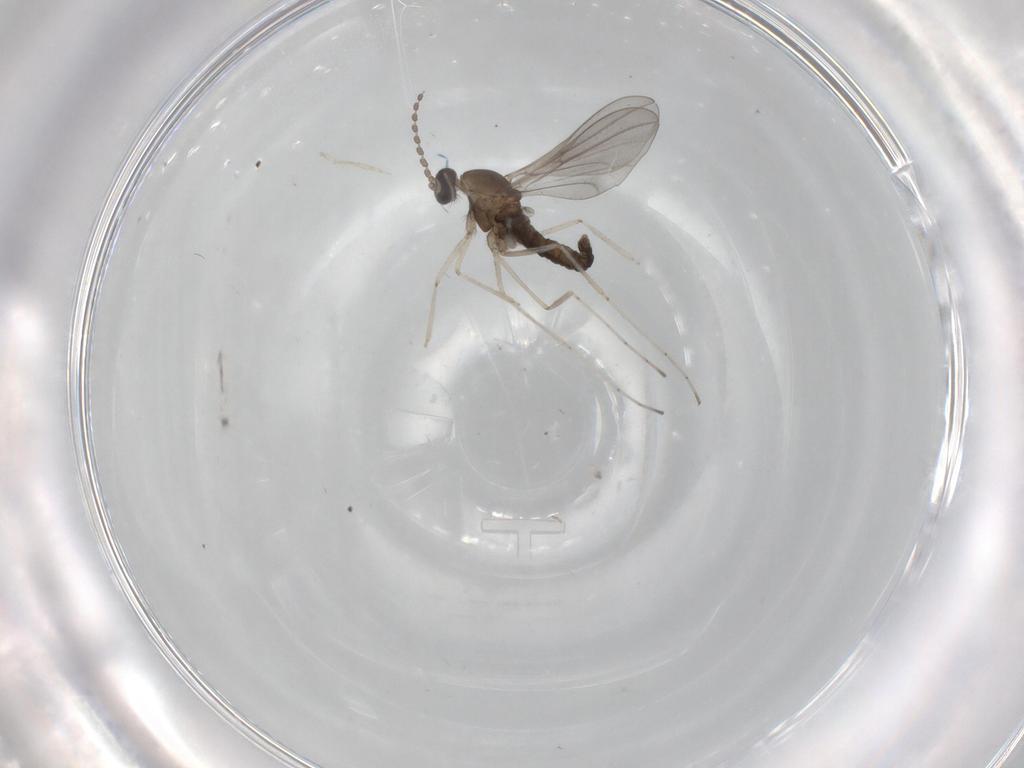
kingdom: Animalia
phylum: Arthropoda
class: Insecta
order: Diptera
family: Cecidomyiidae
